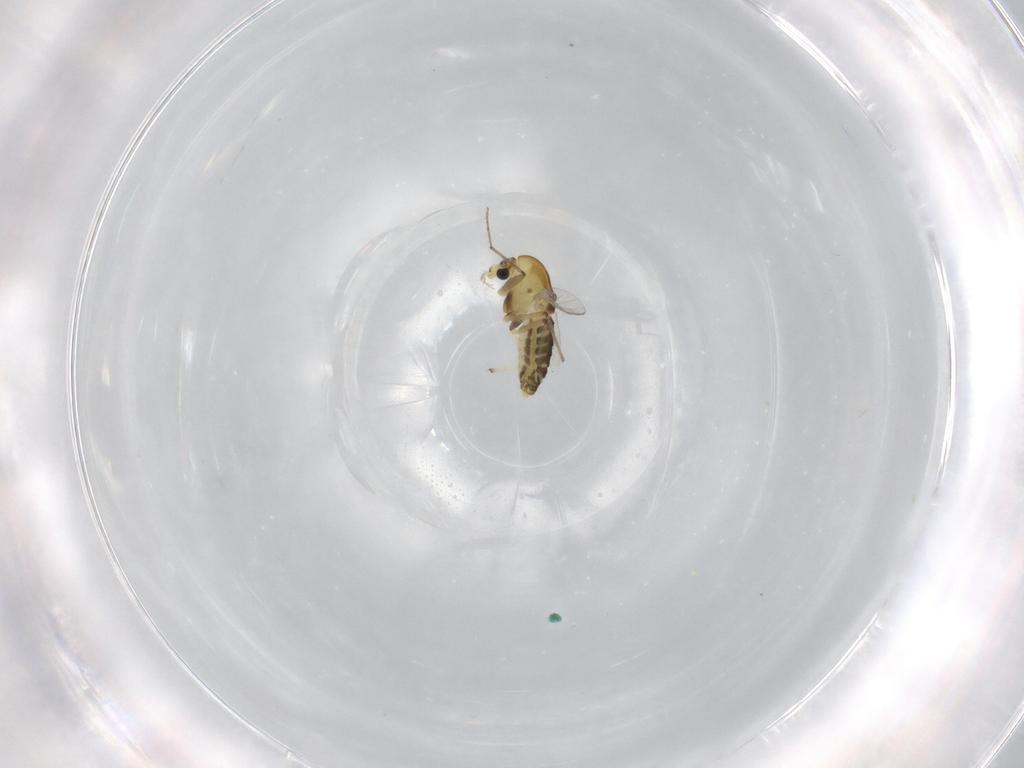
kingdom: Animalia
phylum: Arthropoda
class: Insecta
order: Diptera
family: Chironomidae
